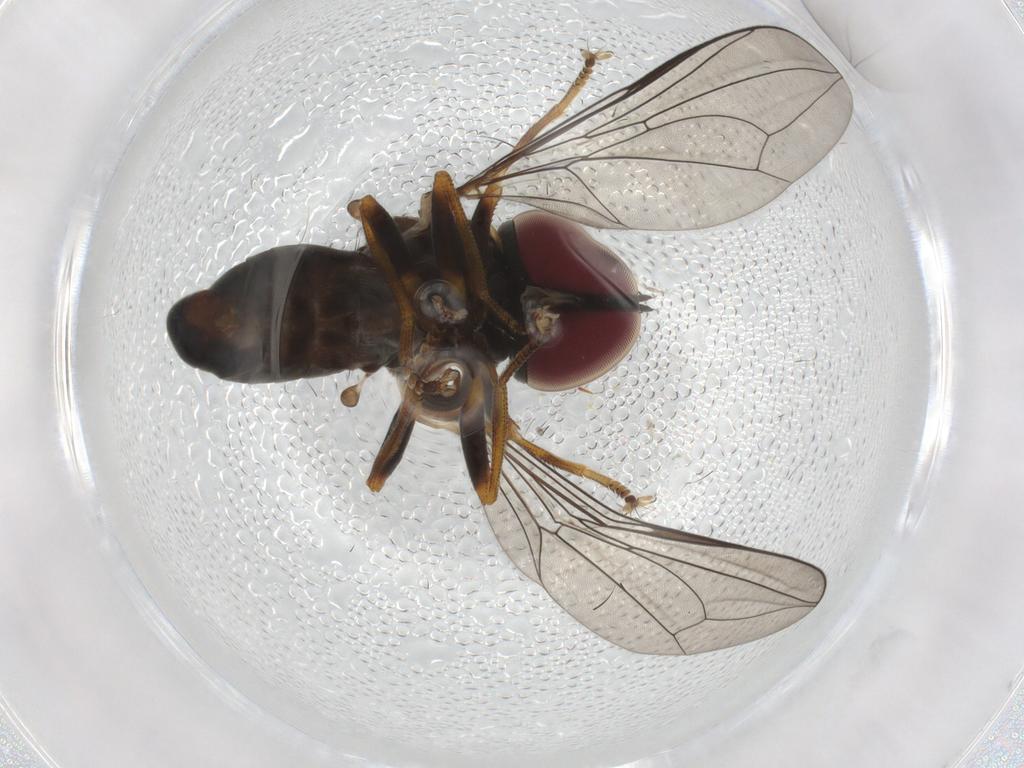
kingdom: Animalia
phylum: Arthropoda
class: Insecta
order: Diptera
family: Pipunculidae
